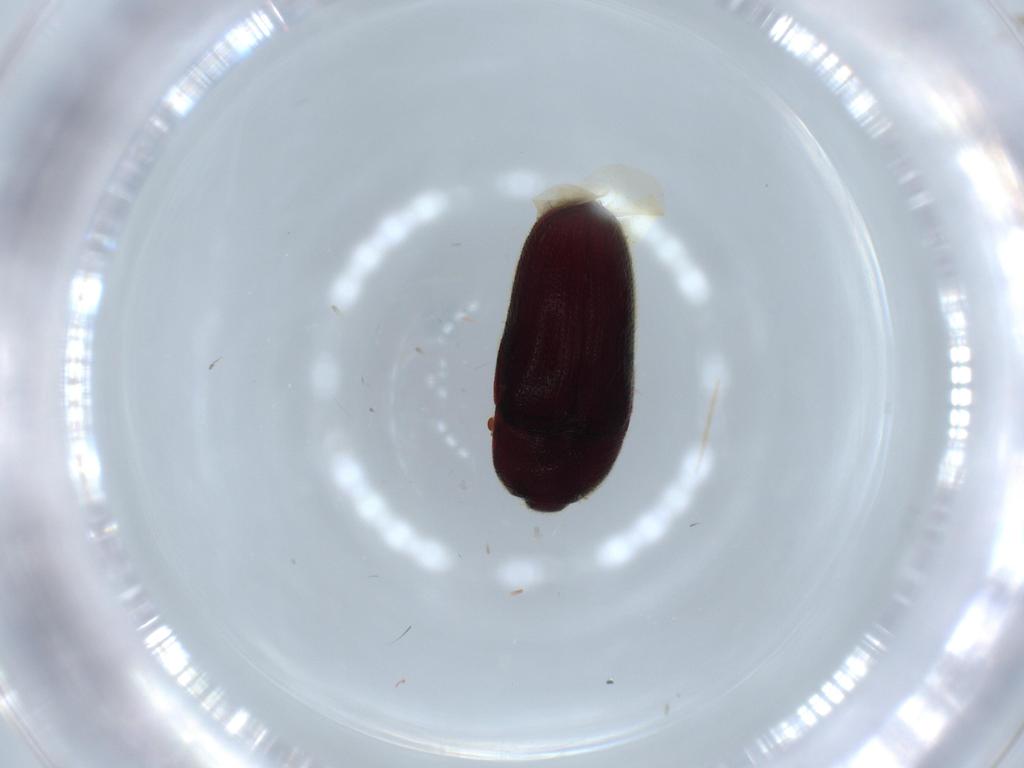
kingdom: Animalia
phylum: Arthropoda
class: Insecta
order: Coleoptera
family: Throscidae
